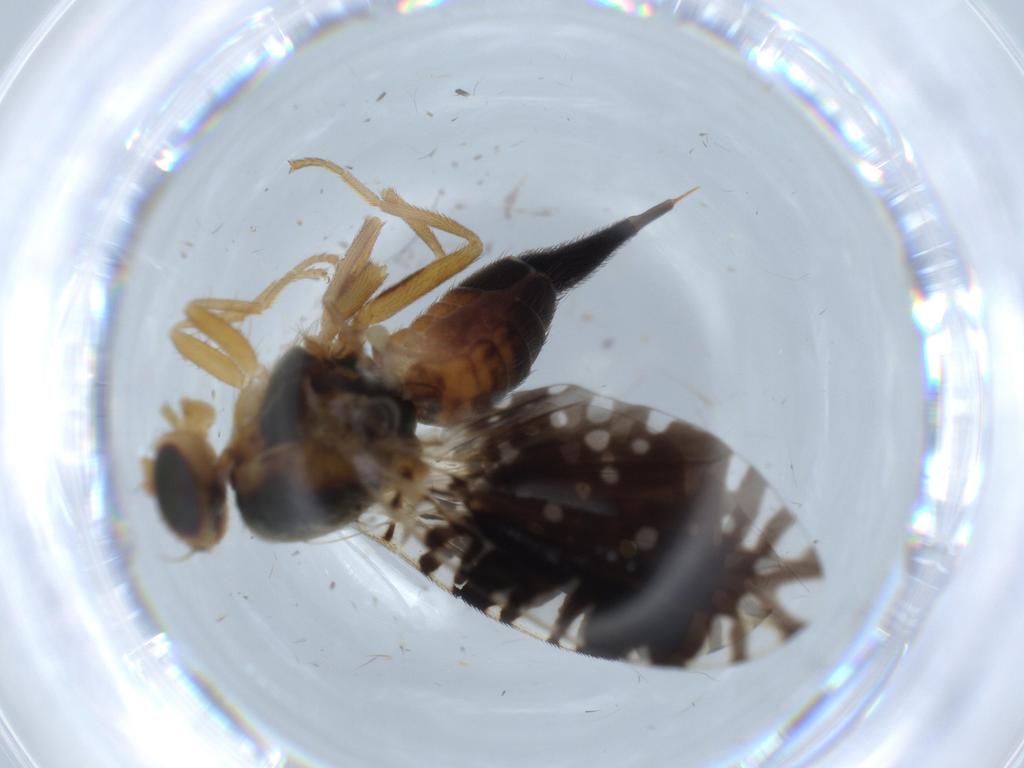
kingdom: Animalia
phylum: Arthropoda
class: Insecta
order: Diptera
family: Tephritidae
